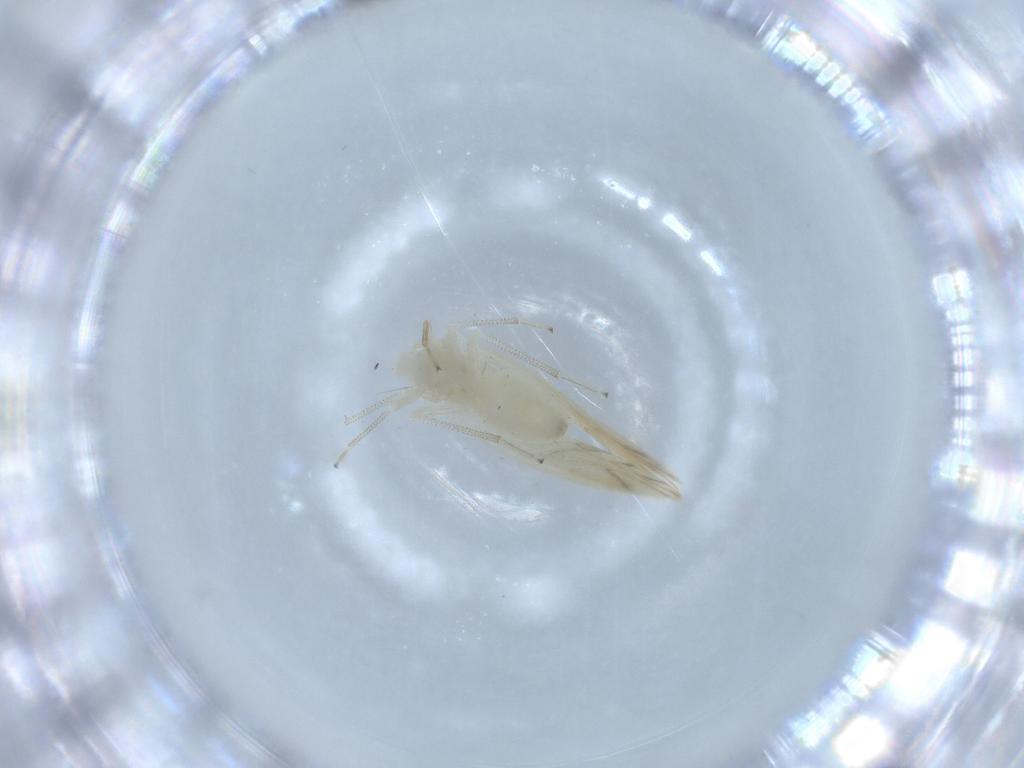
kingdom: Animalia
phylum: Arthropoda
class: Insecta
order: Psocodea
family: Caeciliusidae
